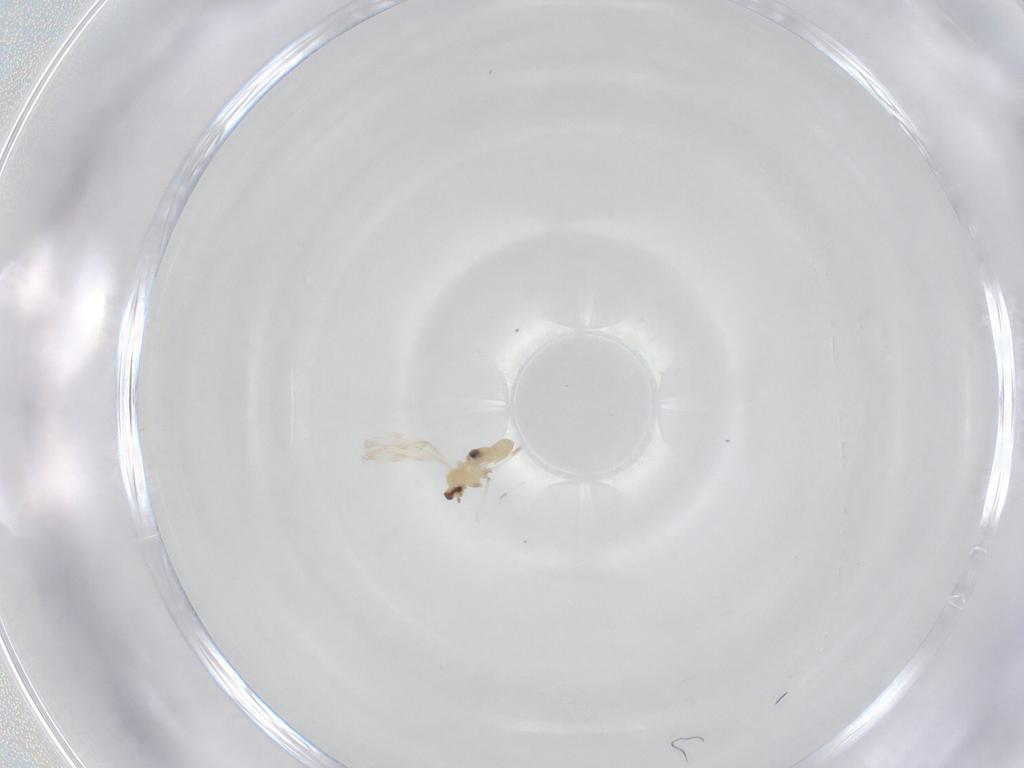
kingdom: Animalia
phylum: Arthropoda
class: Insecta
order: Diptera
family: Cecidomyiidae
